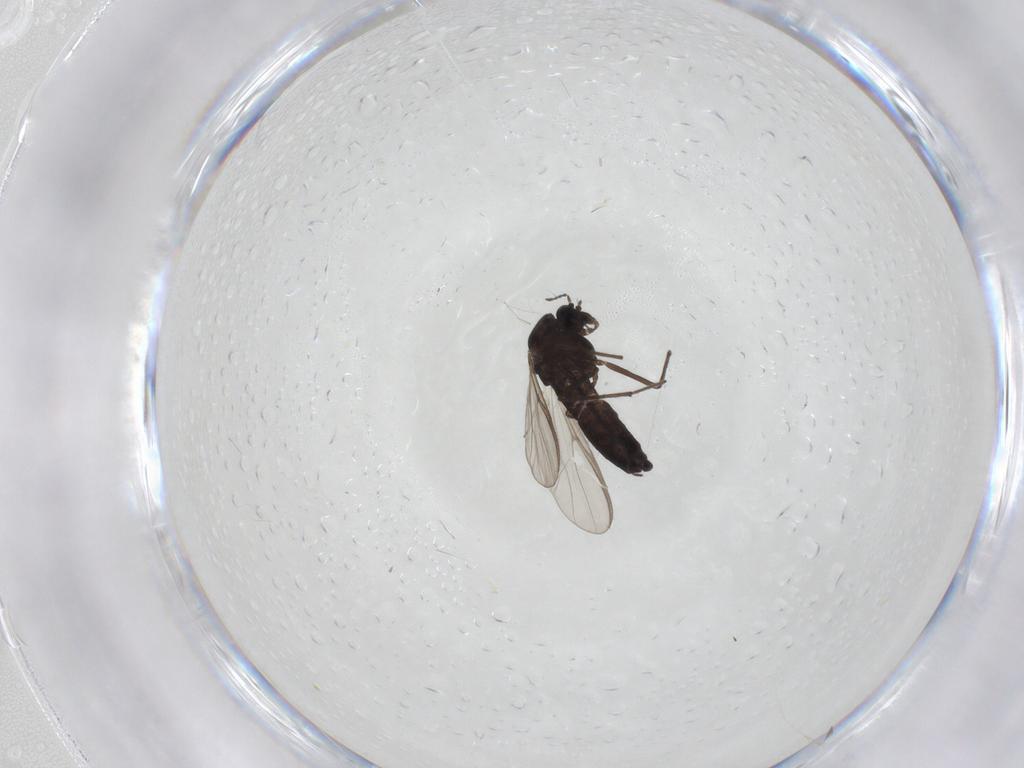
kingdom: Animalia
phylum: Arthropoda
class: Insecta
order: Diptera
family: Chironomidae
